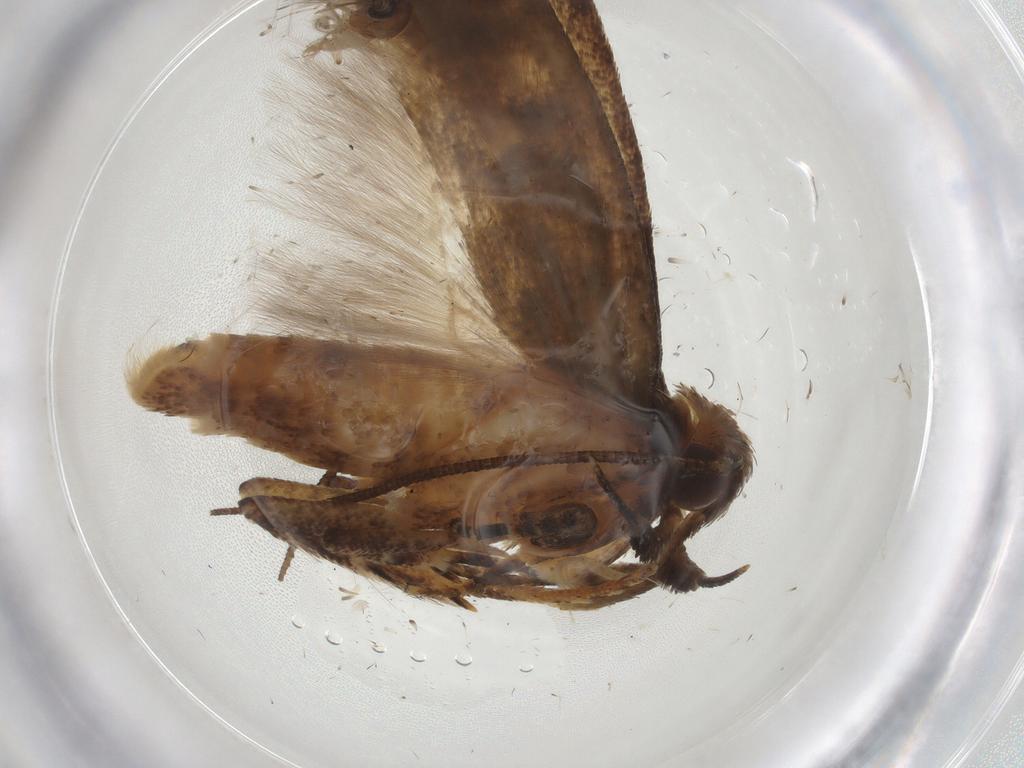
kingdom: Animalia
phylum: Arthropoda
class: Insecta
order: Lepidoptera
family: Gelechiidae
